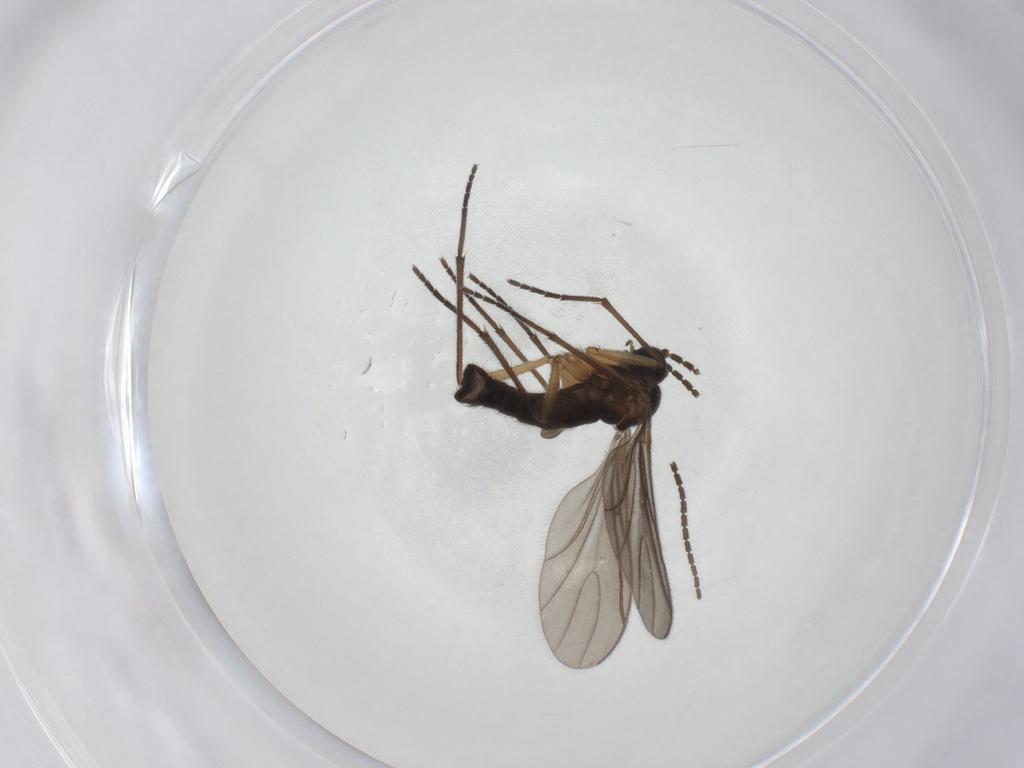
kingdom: Animalia
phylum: Arthropoda
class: Insecta
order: Diptera
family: Sciaridae
